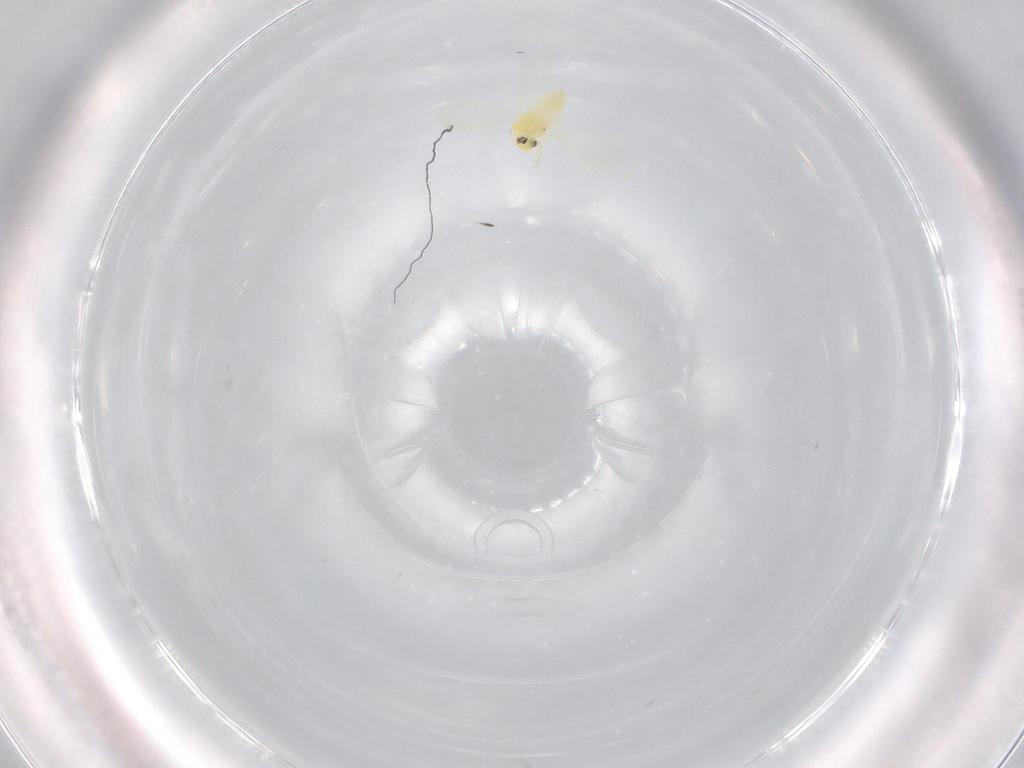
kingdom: Animalia
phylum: Arthropoda
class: Insecta
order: Hemiptera
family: Aleyrodidae
